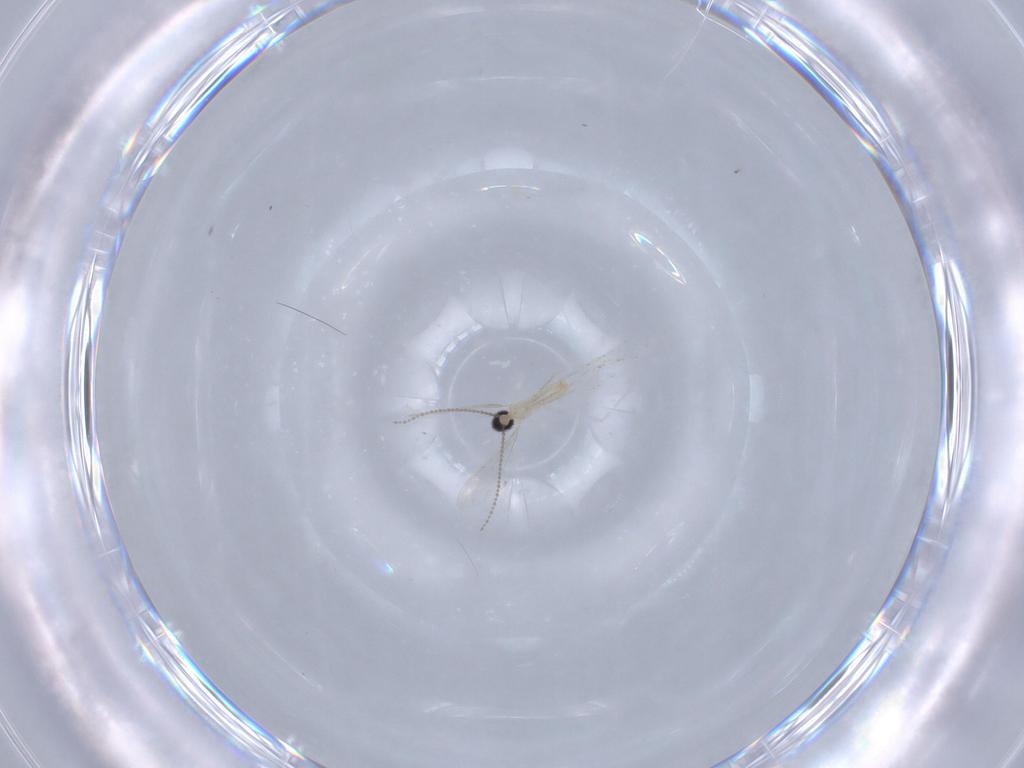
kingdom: Animalia
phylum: Arthropoda
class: Insecta
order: Diptera
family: Cecidomyiidae
